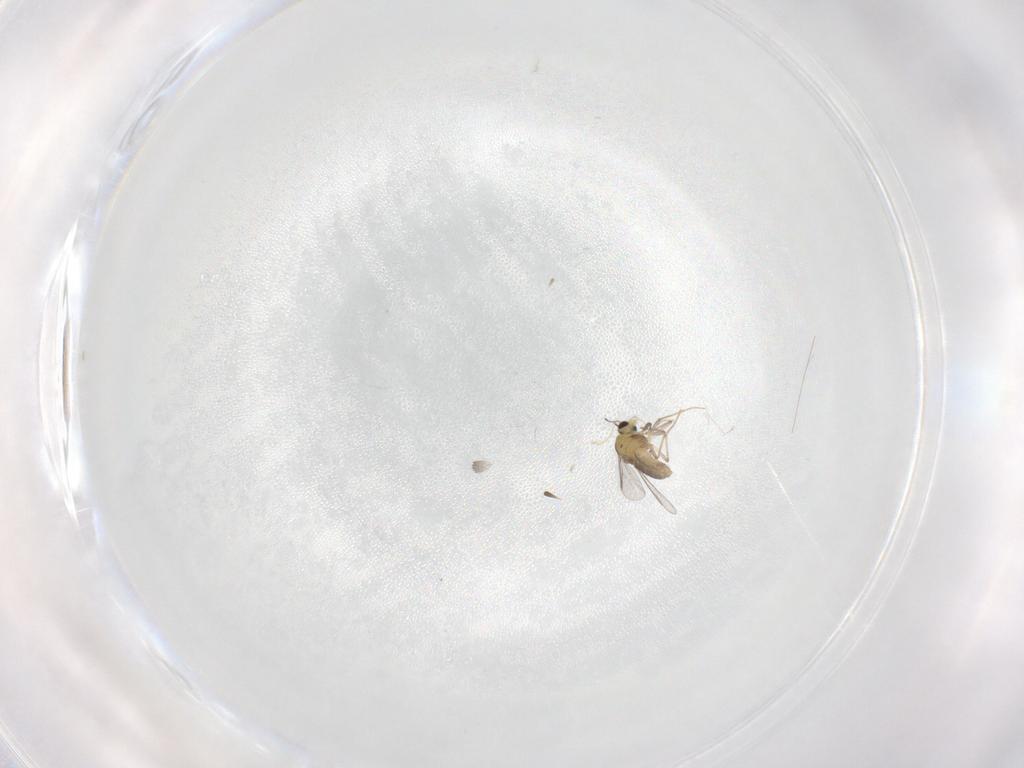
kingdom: Animalia
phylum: Arthropoda
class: Insecta
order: Diptera
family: Chironomidae
